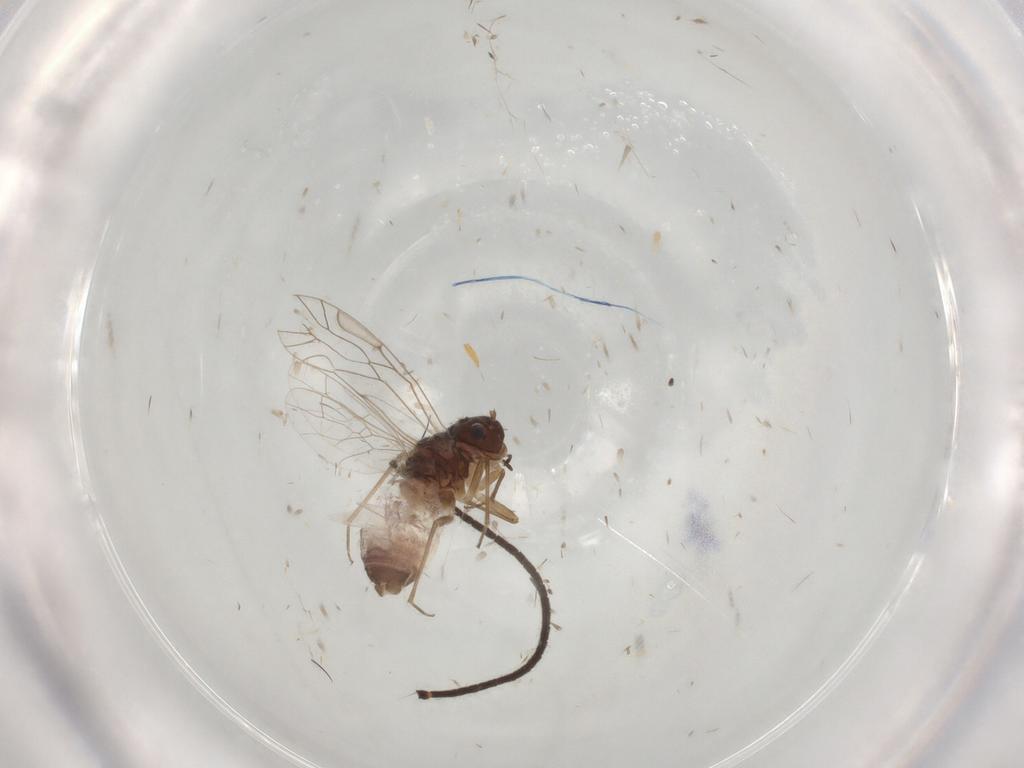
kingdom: Animalia
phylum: Arthropoda
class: Insecta
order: Psocodea
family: Lachesillidae
